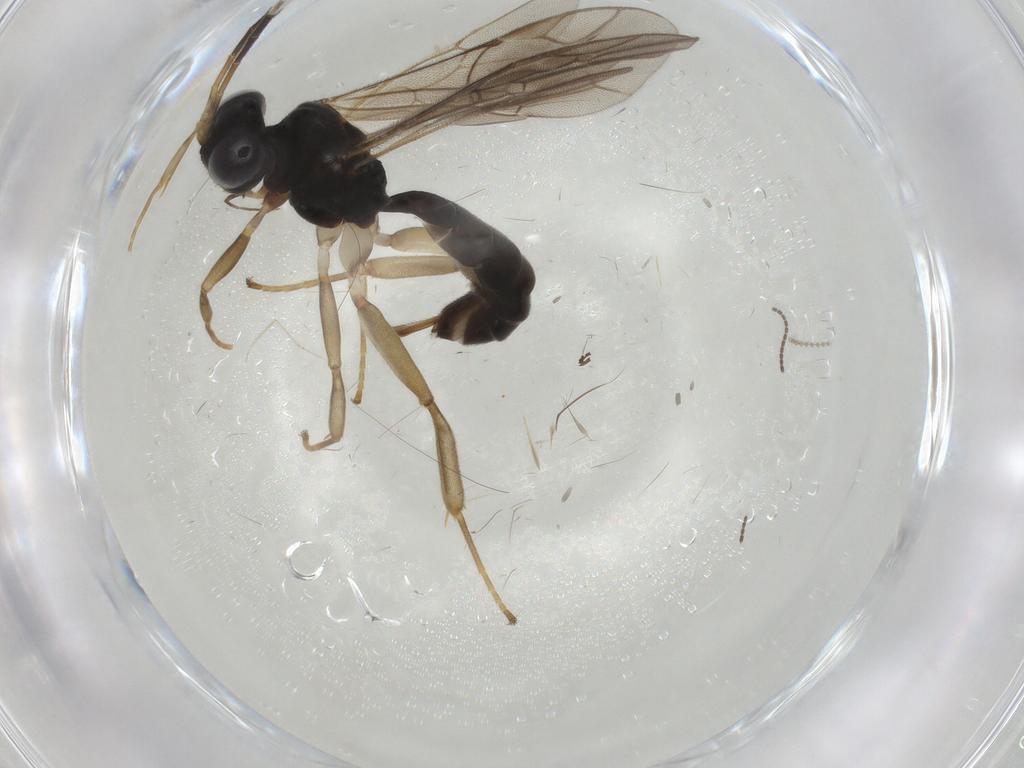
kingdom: Animalia
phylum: Arthropoda
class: Insecta
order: Hymenoptera
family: Ichneumonidae
